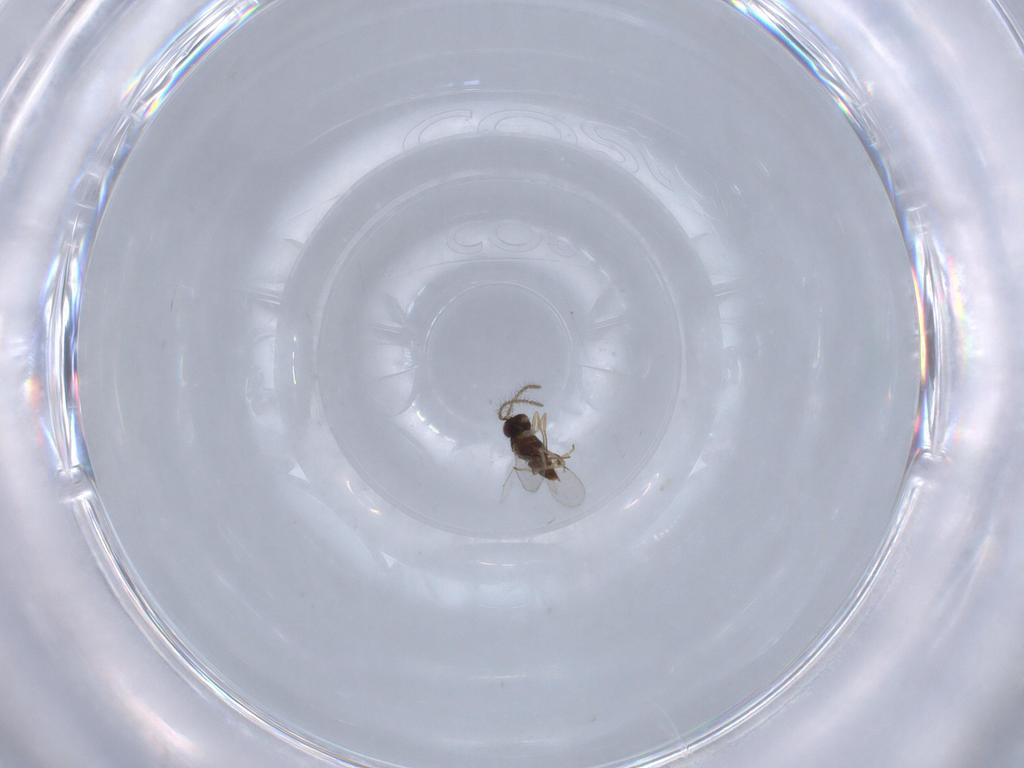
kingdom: Animalia
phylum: Arthropoda
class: Insecta
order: Hymenoptera
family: Encyrtidae
